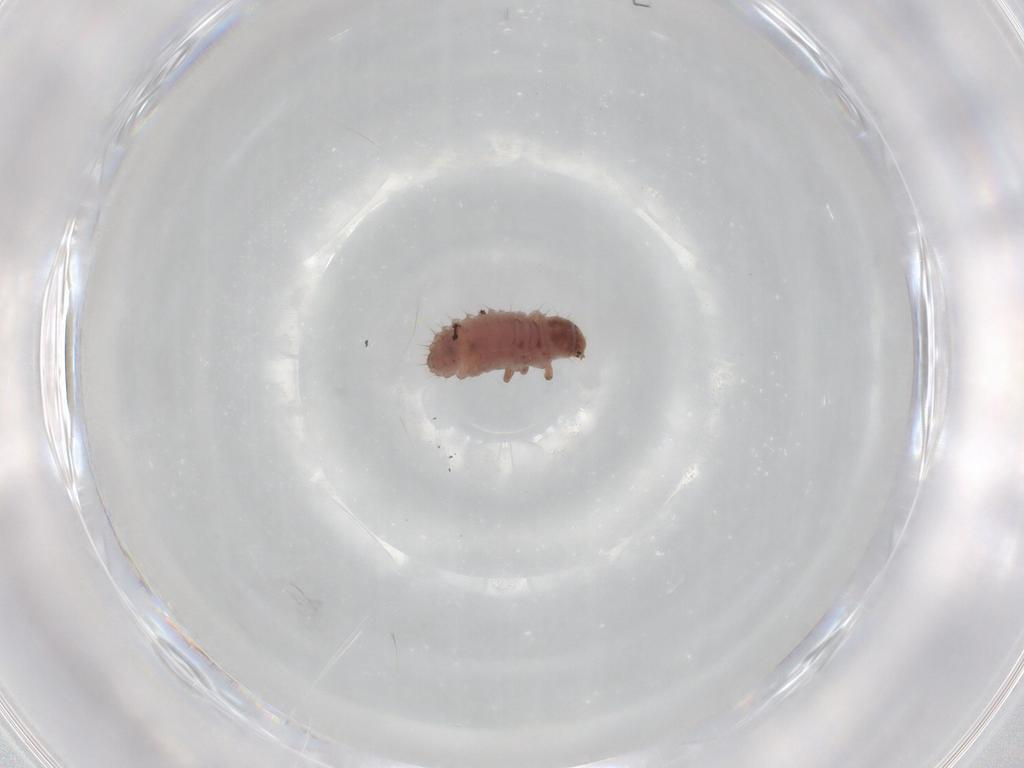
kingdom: Animalia
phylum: Arthropoda
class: Insecta
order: Coleoptera
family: Coccinellidae
